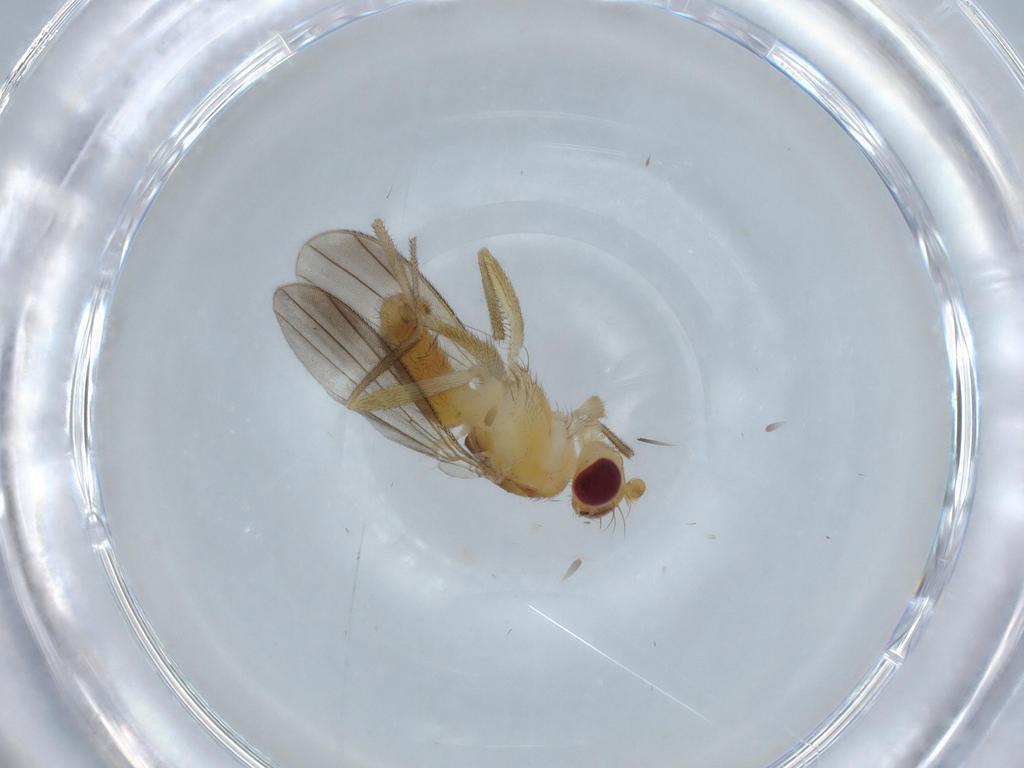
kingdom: Animalia
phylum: Arthropoda
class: Insecta
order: Diptera
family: Clusiidae
